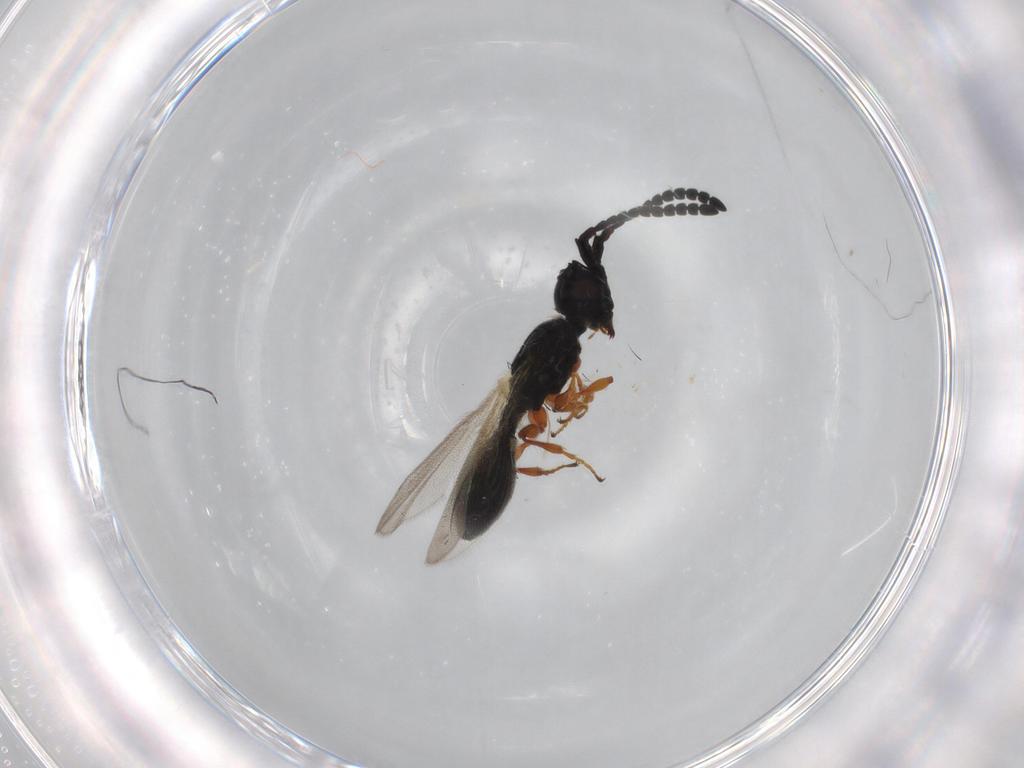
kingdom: Animalia
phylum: Arthropoda
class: Insecta
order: Hymenoptera
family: Diapriidae
